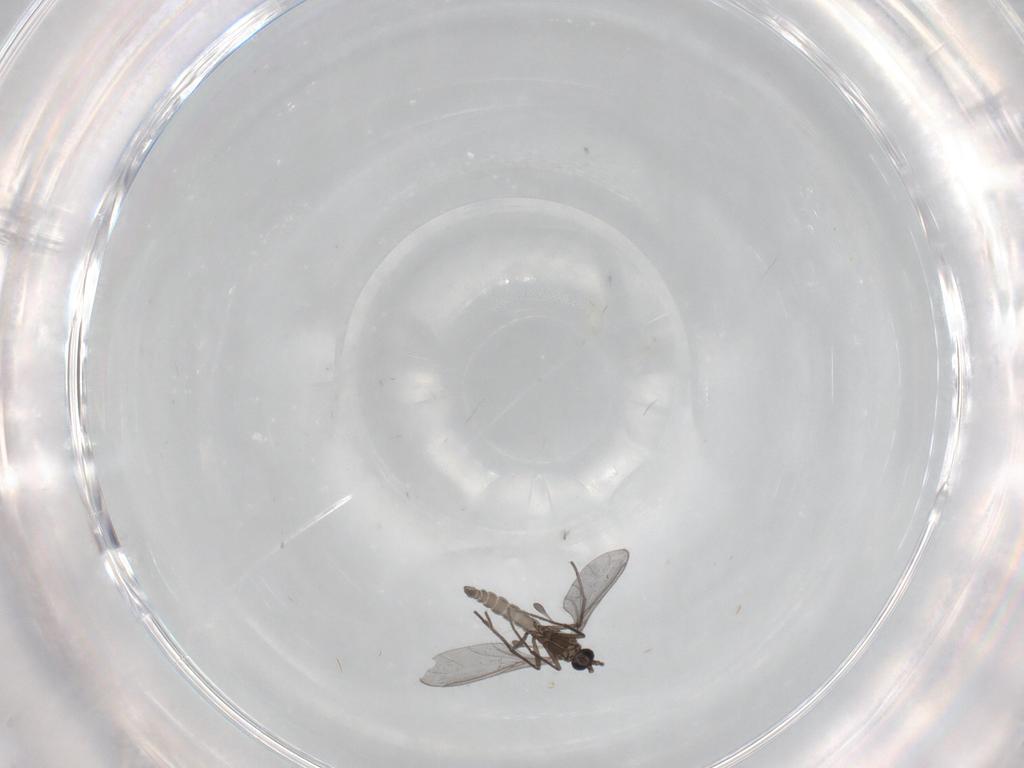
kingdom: Animalia
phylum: Arthropoda
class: Insecta
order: Diptera
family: Sciaridae
